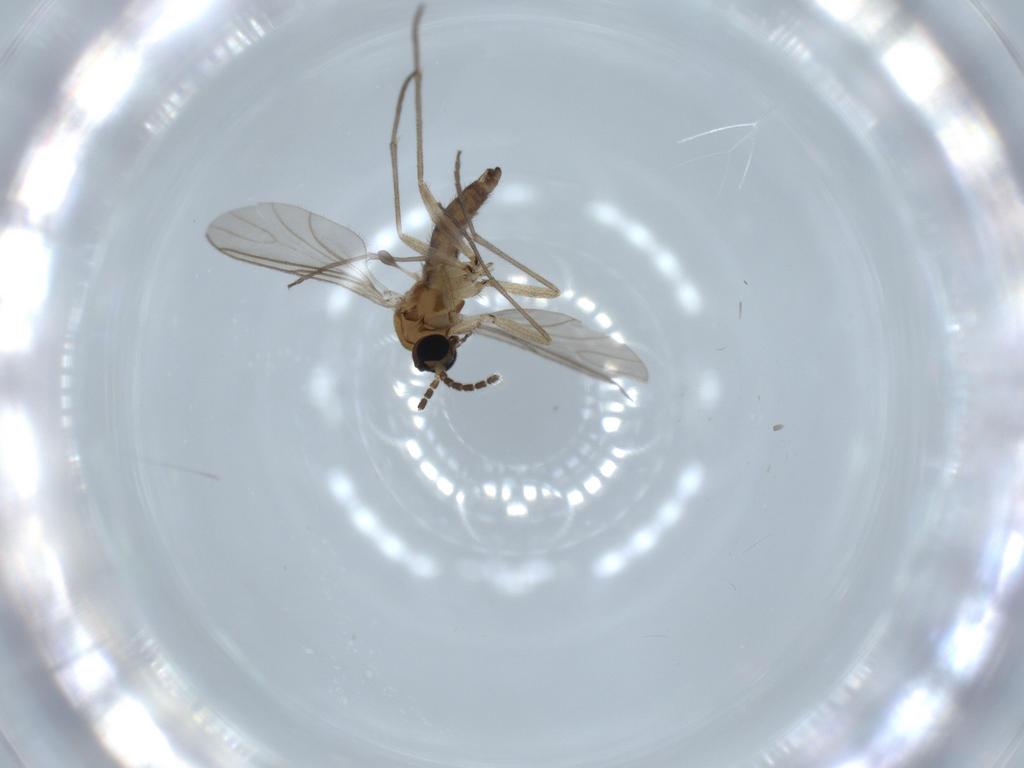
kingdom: Animalia
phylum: Arthropoda
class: Insecta
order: Diptera
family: Sciaridae
